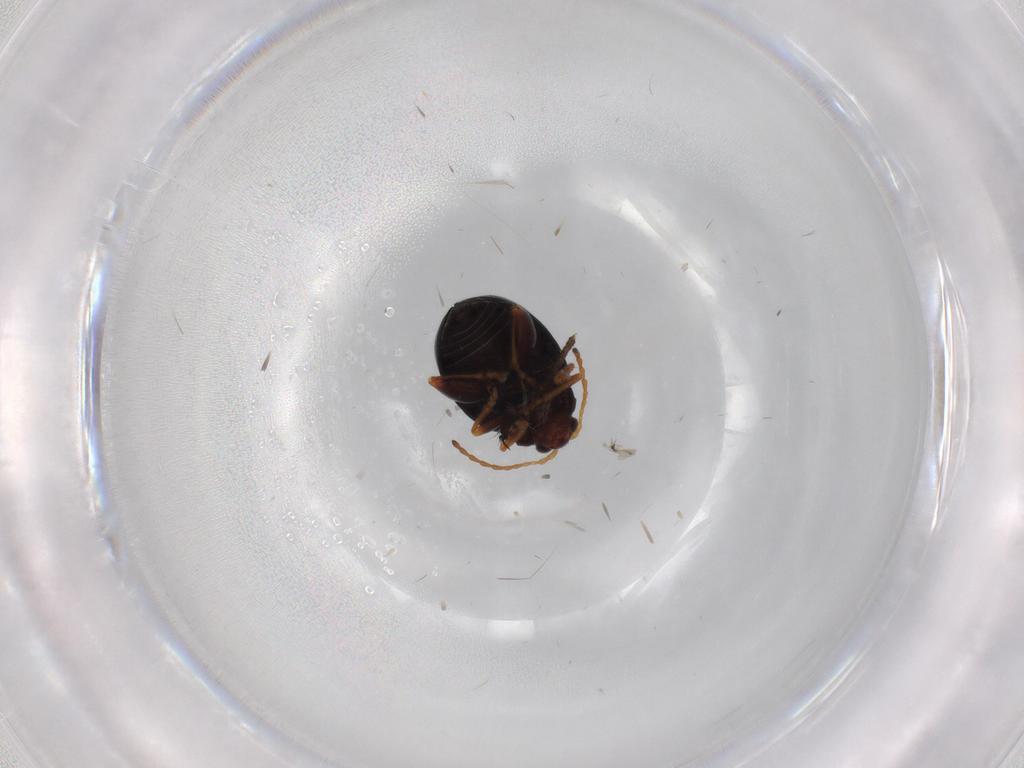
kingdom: Animalia
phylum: Arthropoda
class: Insecta
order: Coleoptera
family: Chrysomelidae
